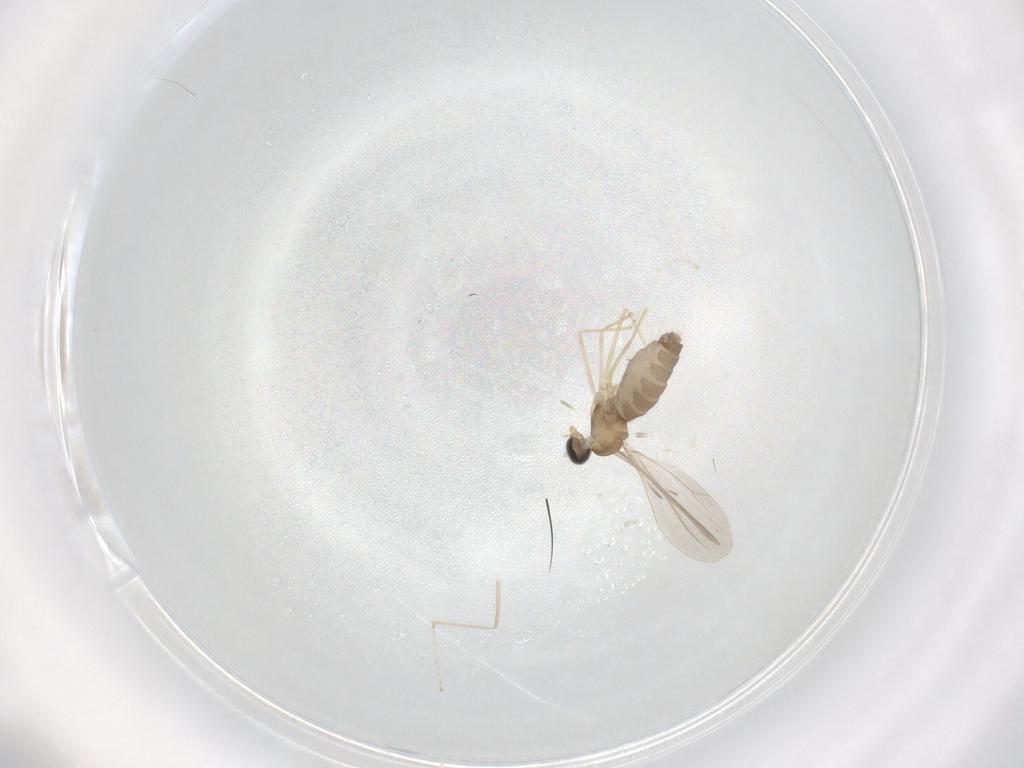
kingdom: Animalia
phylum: Arthropoda
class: Insecta
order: Diptera
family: Cecidomyiidae
